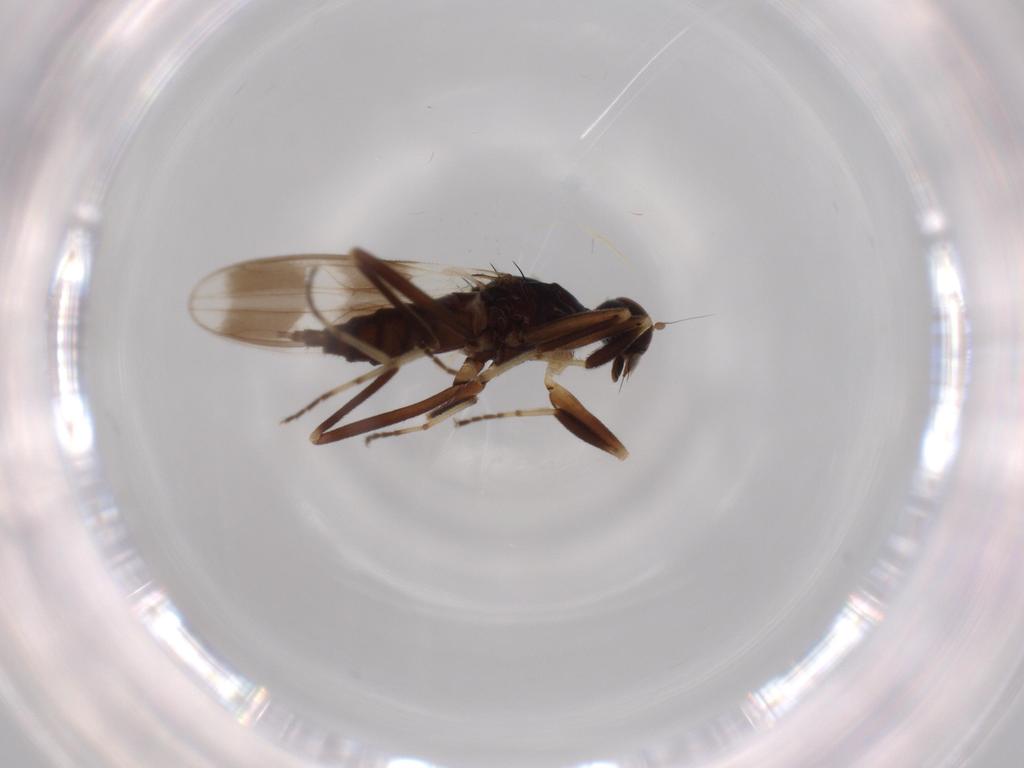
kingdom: Animalia
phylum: Arthropoda
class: Insecta
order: Diptera
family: Hybotidae
